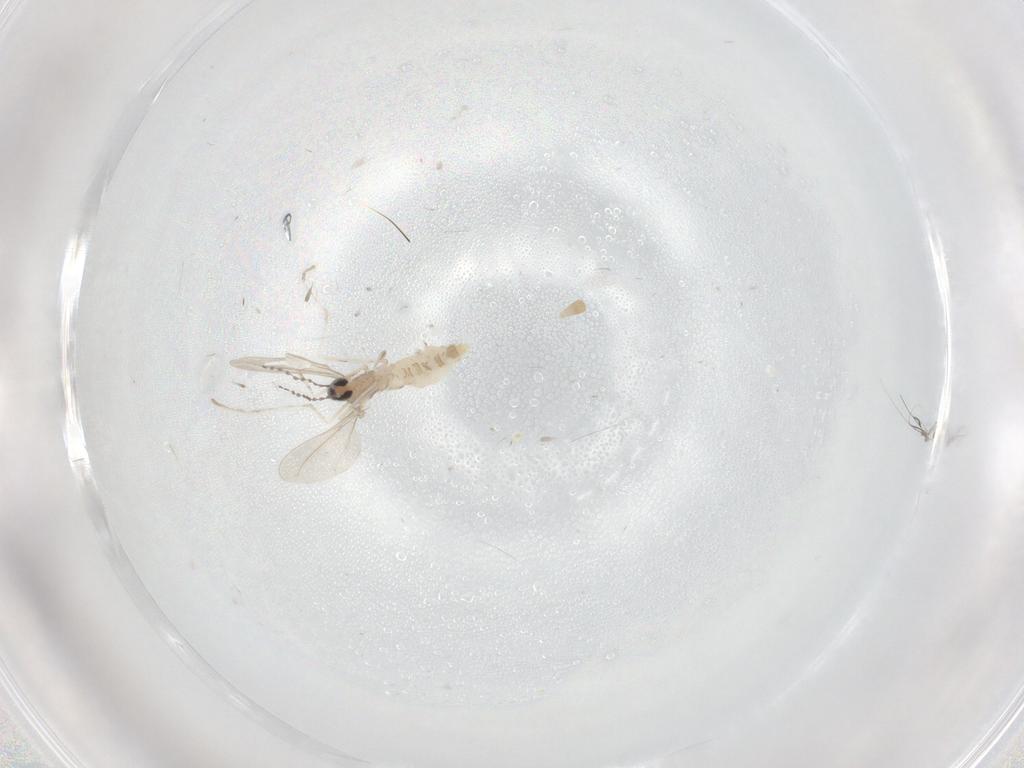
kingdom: Animalia
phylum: Arthropoda
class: Insecta
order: Diptera
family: Cecidomyiidae
